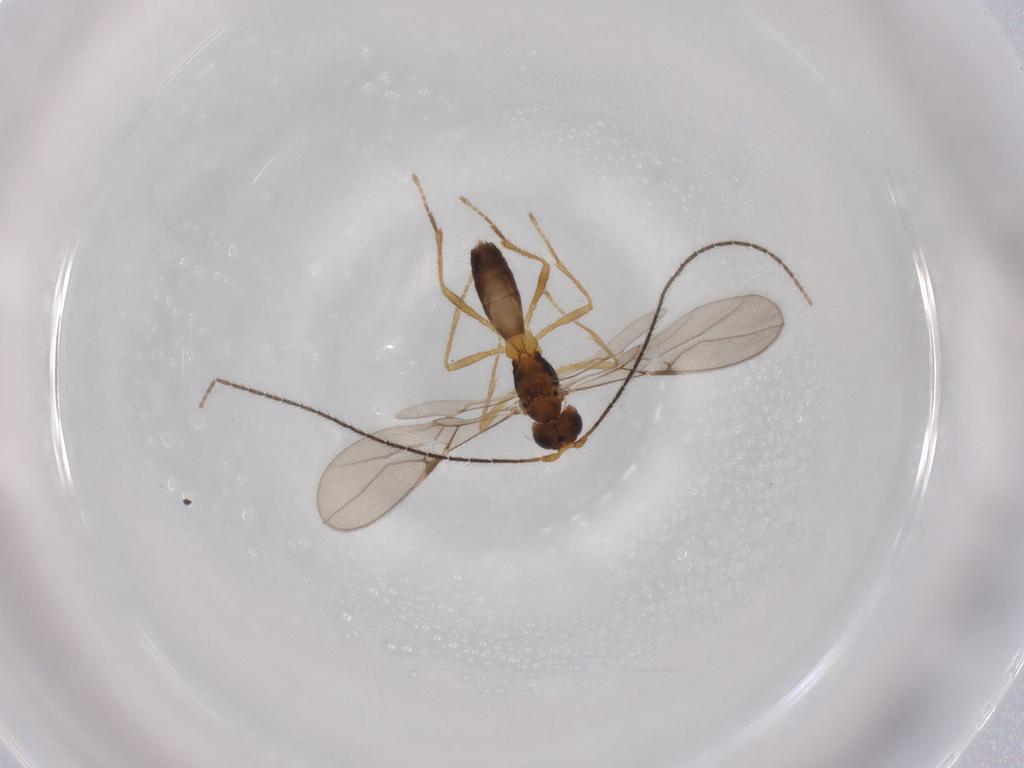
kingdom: Animalia
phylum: Arthropoda
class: Insecta
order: Hymenoptera
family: Braconidae
